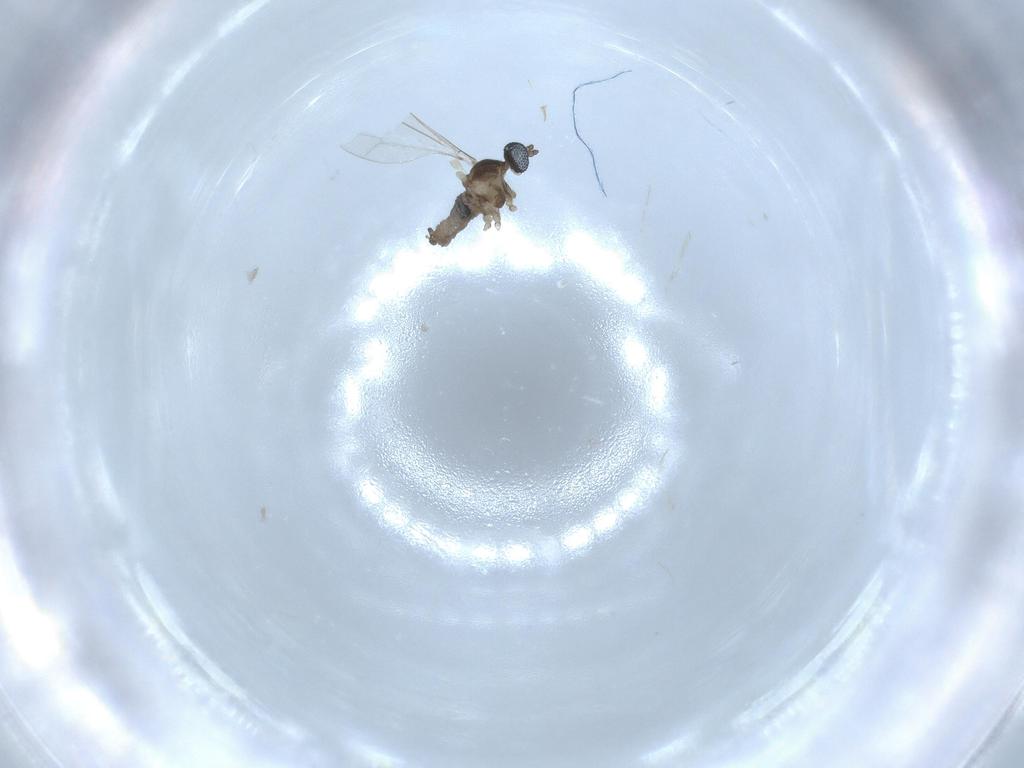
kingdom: Animalia
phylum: Arthropoda
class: Insecta
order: Diptera
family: Cecidomyiidae
